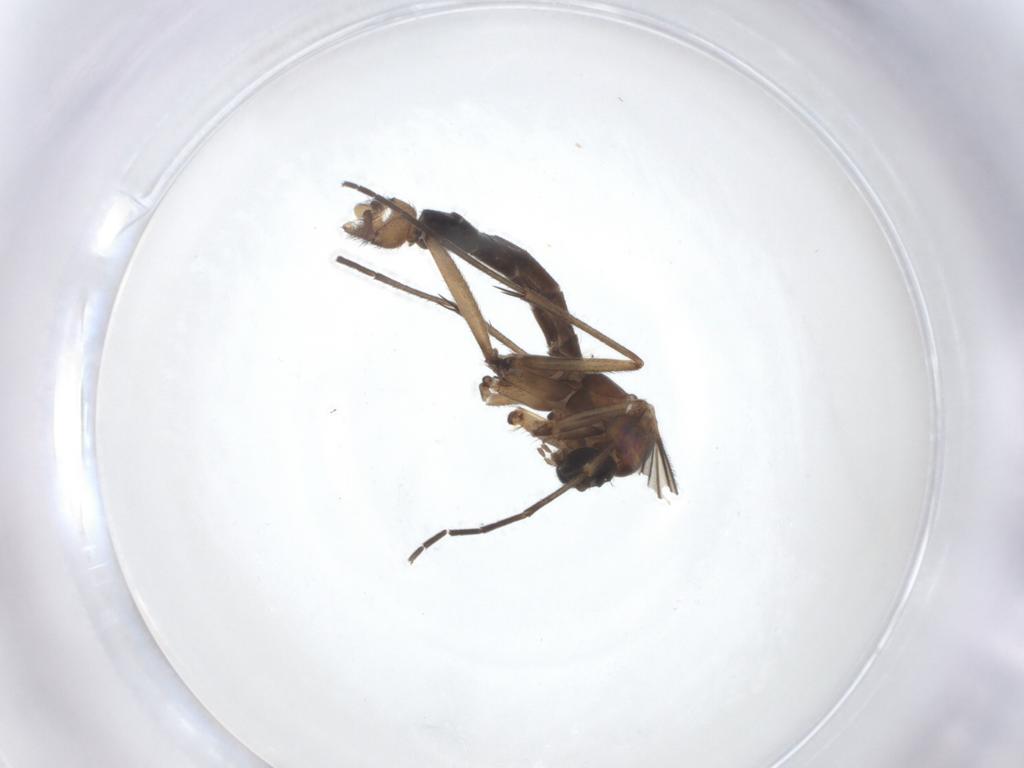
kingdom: Animalia
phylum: Arthropoda
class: Insecta
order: Diptera
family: Mycetophilidae
